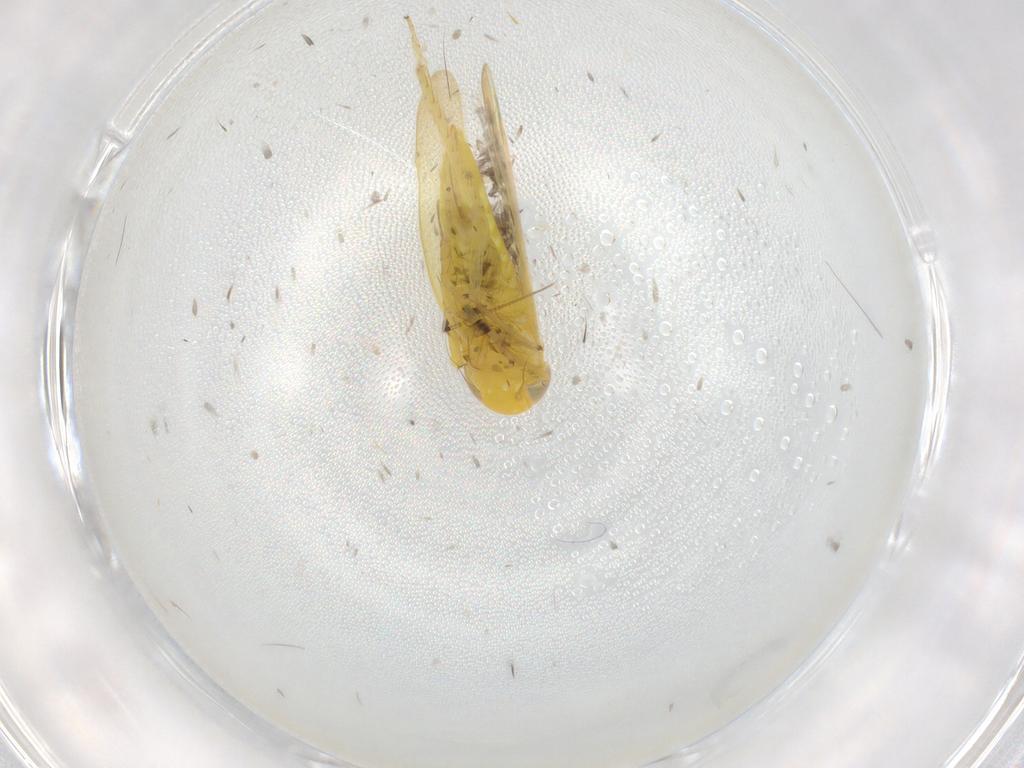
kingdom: Animalia
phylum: Arthropoda
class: Insecta
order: Hemiptera
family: Cicadellidae
